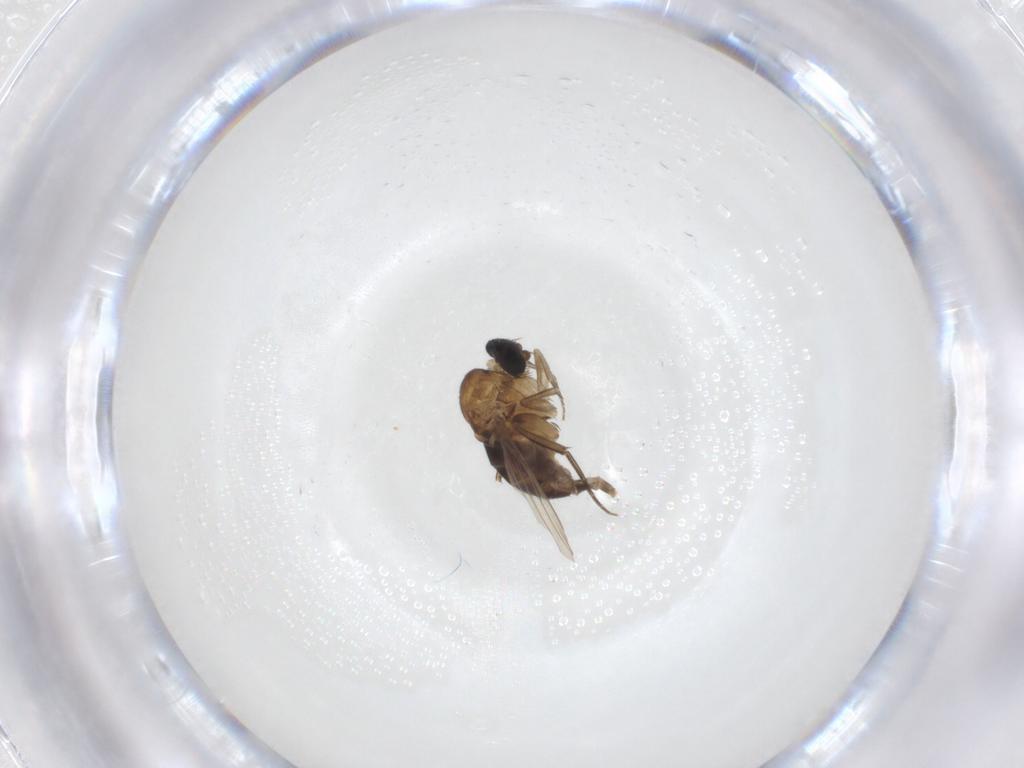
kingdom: Animalia
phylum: Arthropoda
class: Insecta
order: Diptera
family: Phoridae
